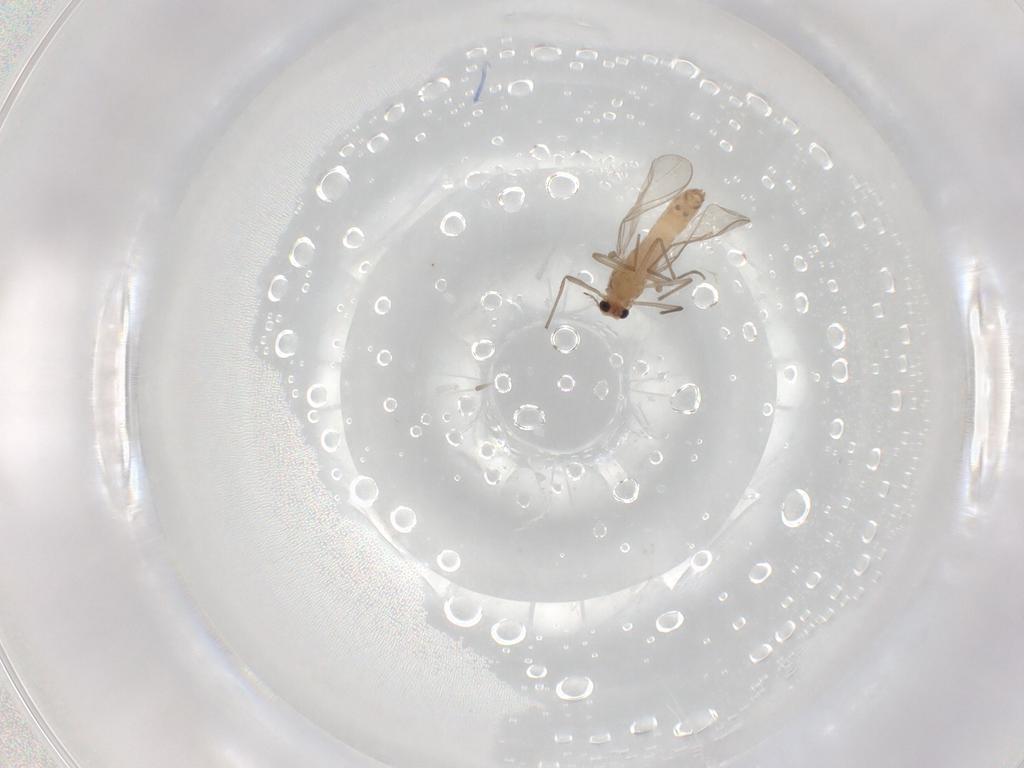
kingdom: Animalia
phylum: Arthropoda
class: Insecta
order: Diptera
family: Chironomidae
